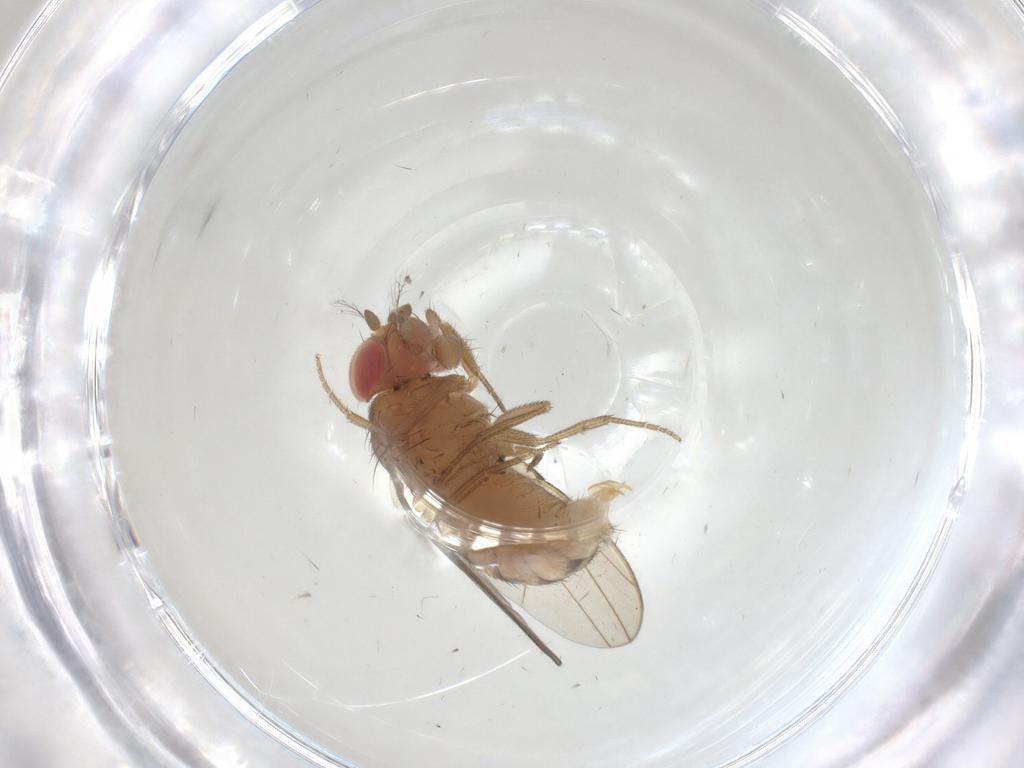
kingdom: Animalia
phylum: Arthropoda
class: Insecta
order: Diptera
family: Drosophilidae
